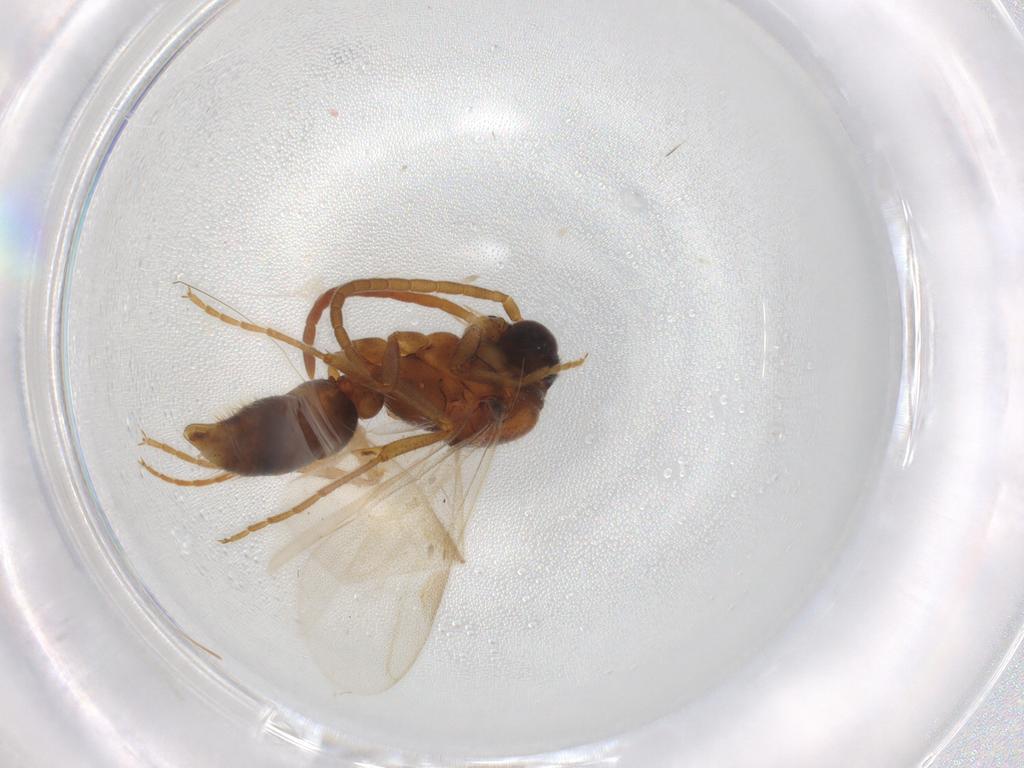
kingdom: Animalia
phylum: Arthropoda
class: Insecta
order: Hymenoptera
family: Formicidae
